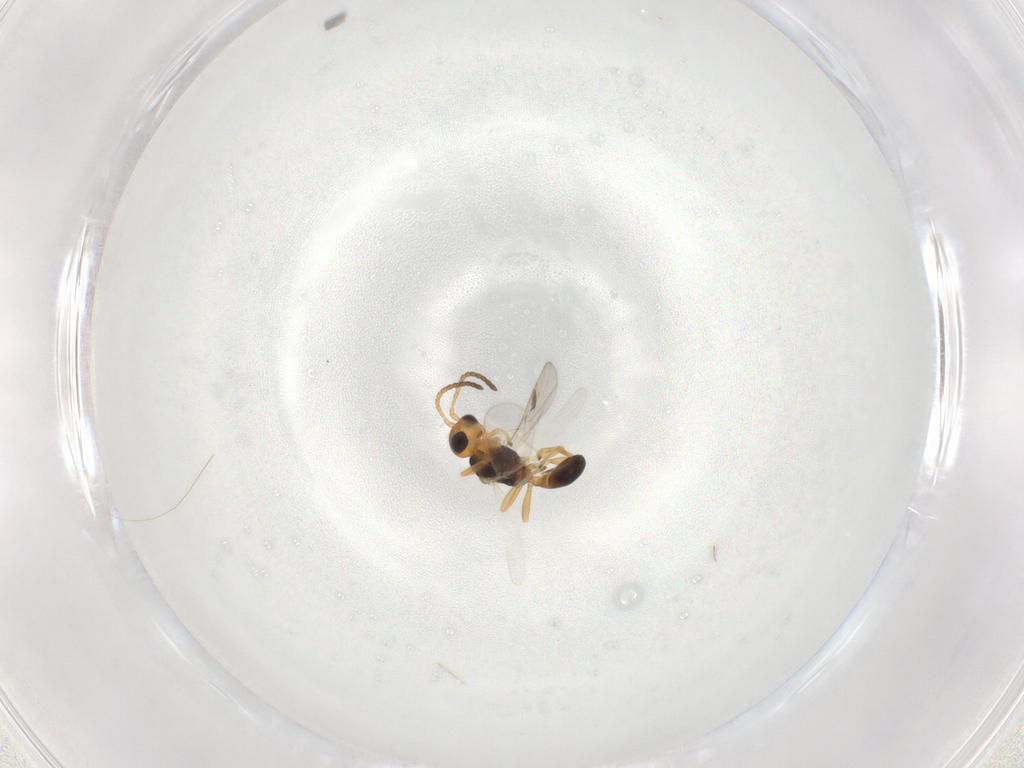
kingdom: Animalia
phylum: Arthropoda
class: Insecta
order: Hymenoptera
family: Braconidae
